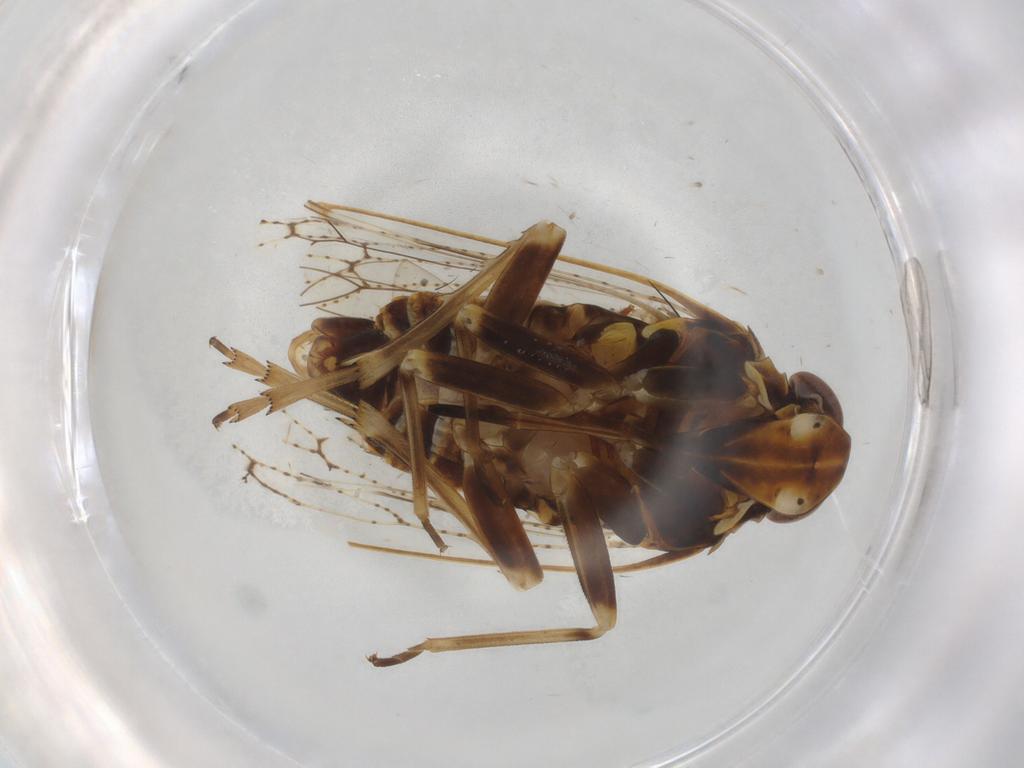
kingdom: Animalia
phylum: Arthropoda
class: Insecta
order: Hemiptera
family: Cixiidae
